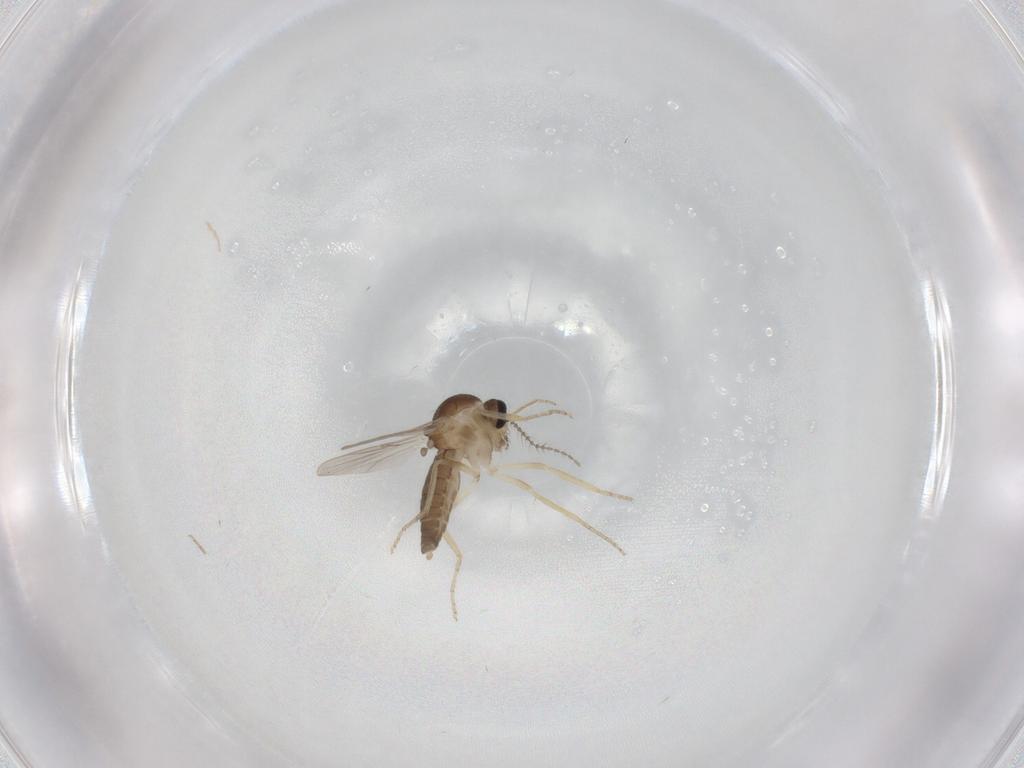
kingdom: Animalia
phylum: Arthropoda
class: Insecta
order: Diptera
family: Ceratopogonidae
